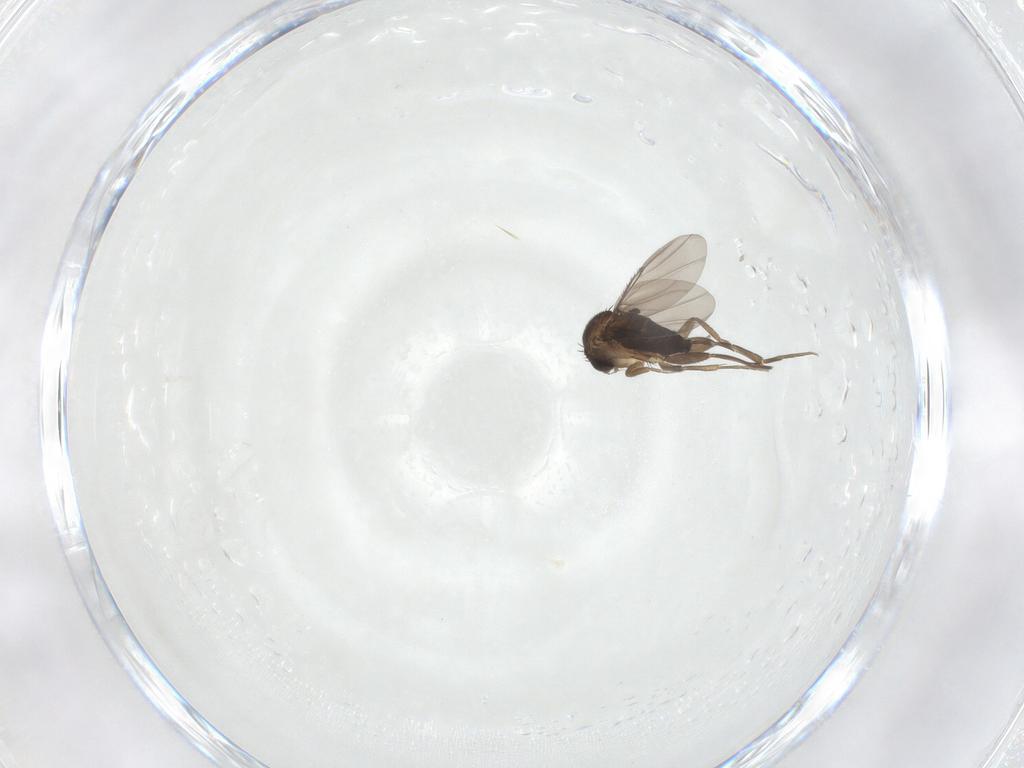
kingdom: Animalia
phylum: Arthropoda
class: Insecta
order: Diptera
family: Phoridae
